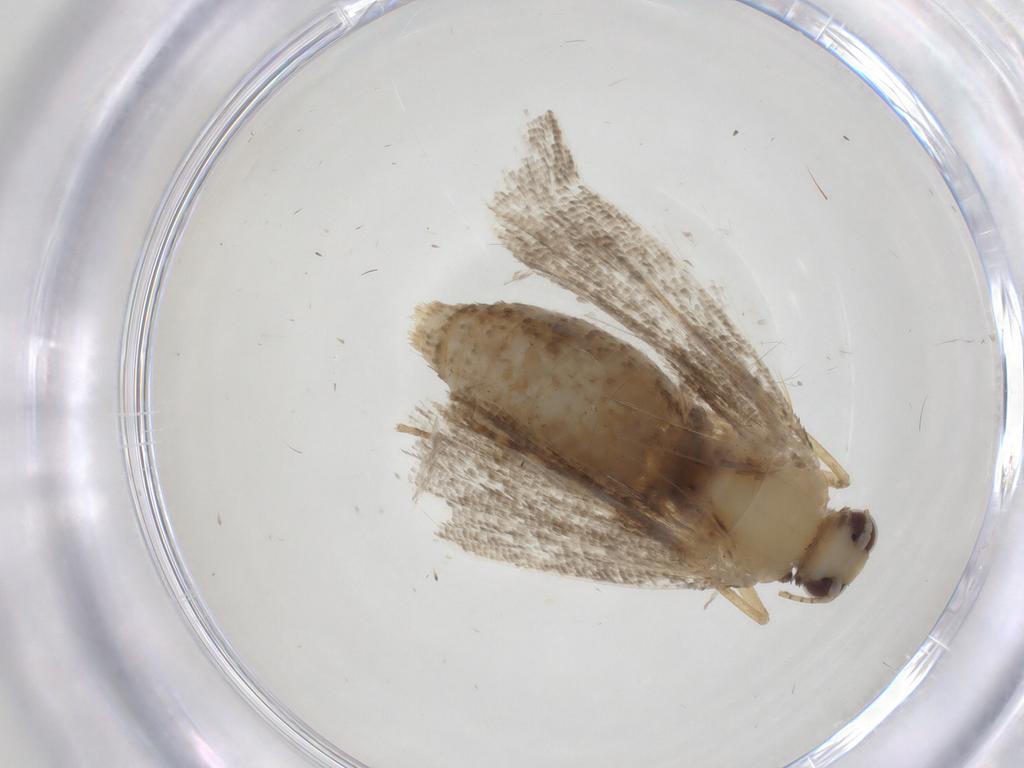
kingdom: Animalia
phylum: Arthropoda
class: Insecta
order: Lepidoptera
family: Erebidae
